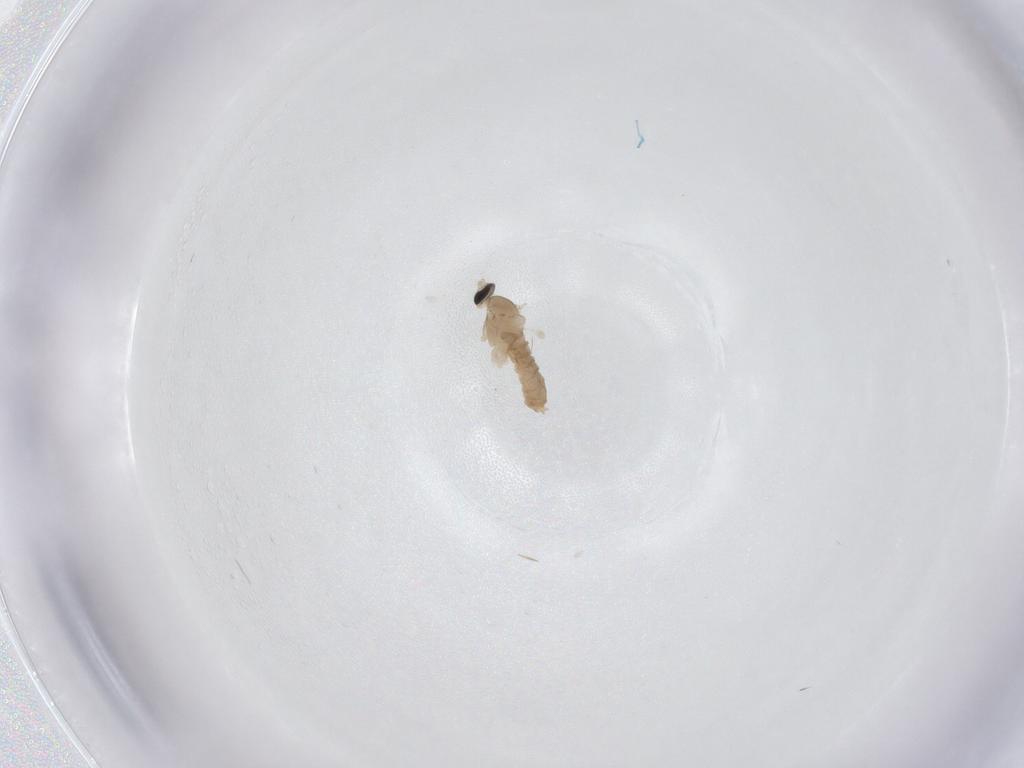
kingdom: Animalia
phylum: Arthropoda
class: Insecta
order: Diptera
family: Cecidomyiidae
